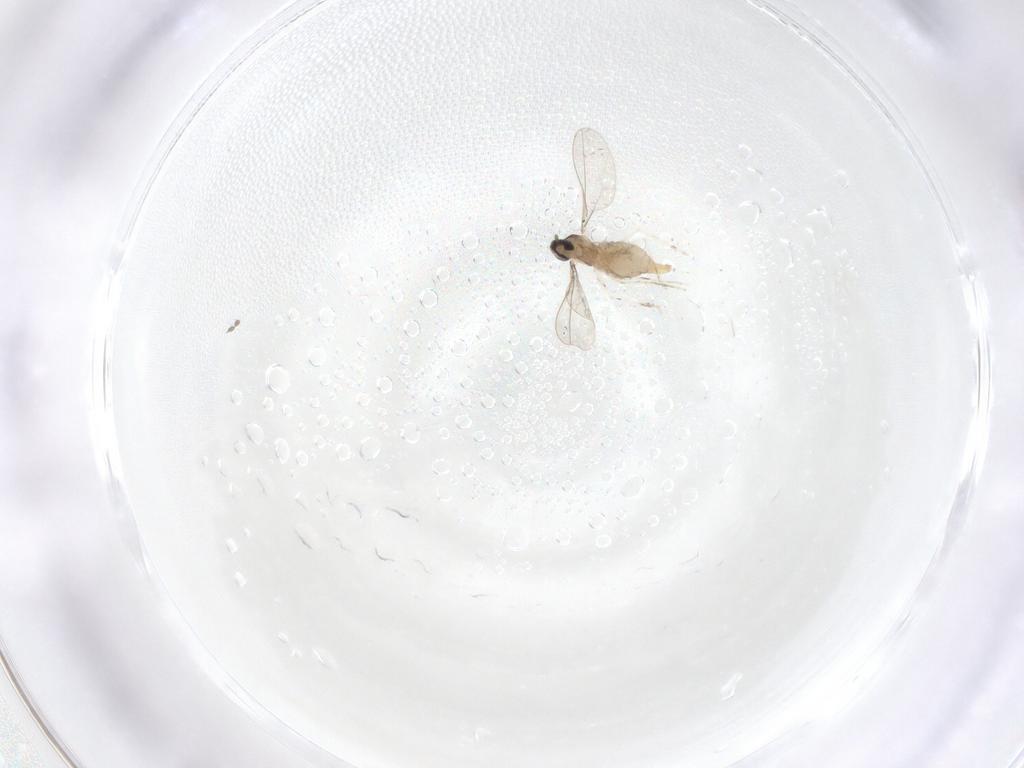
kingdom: Animalia
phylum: Arthropoda
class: Insecta
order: Diptera
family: Cecidomyiidae
